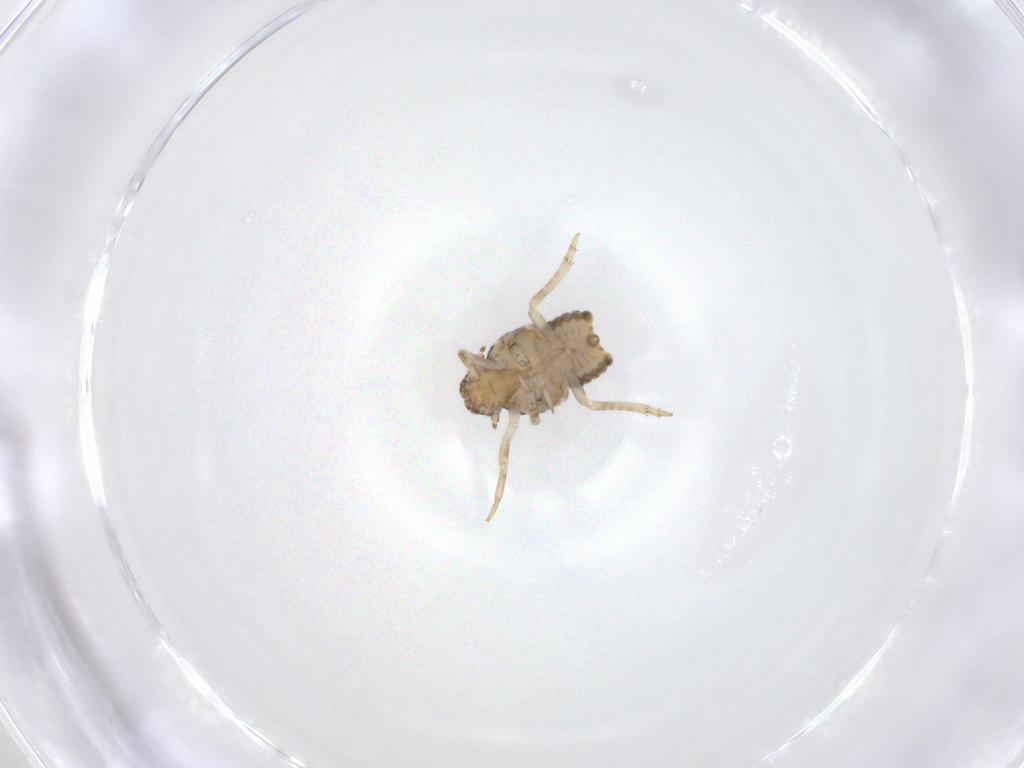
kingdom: Animalia
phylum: Arthropoda
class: Insecta
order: Hemiptera
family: Flatidae
